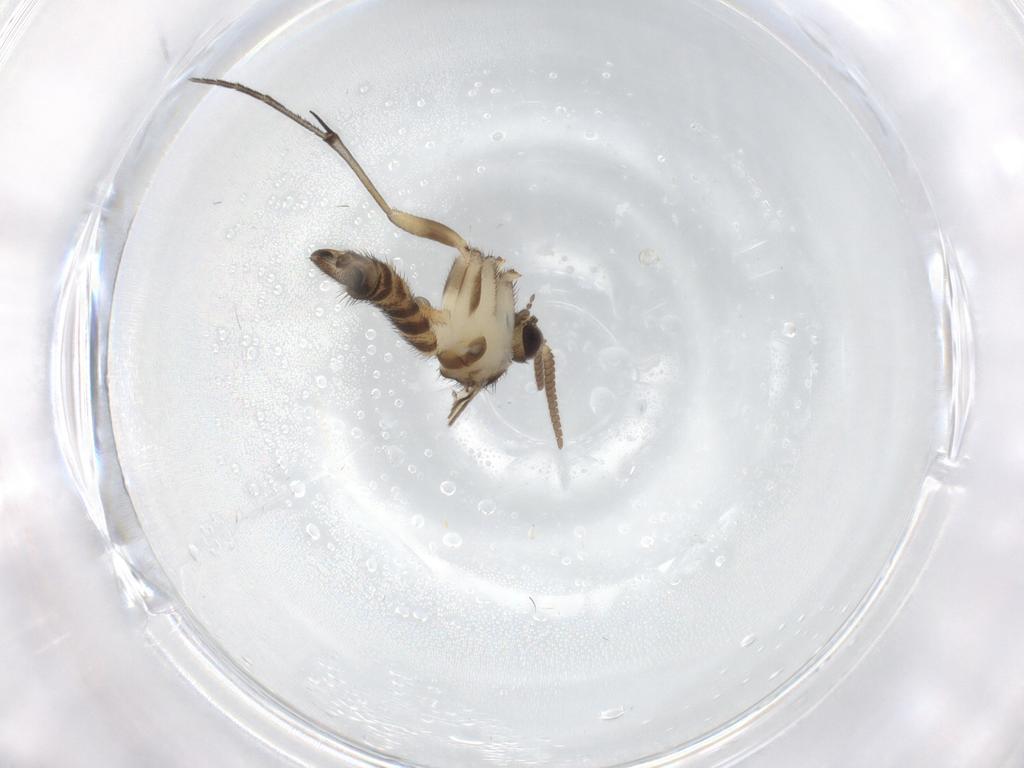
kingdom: Animalia
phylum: Arthropoda
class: Insecta
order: Diptera
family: Keroplatidae
